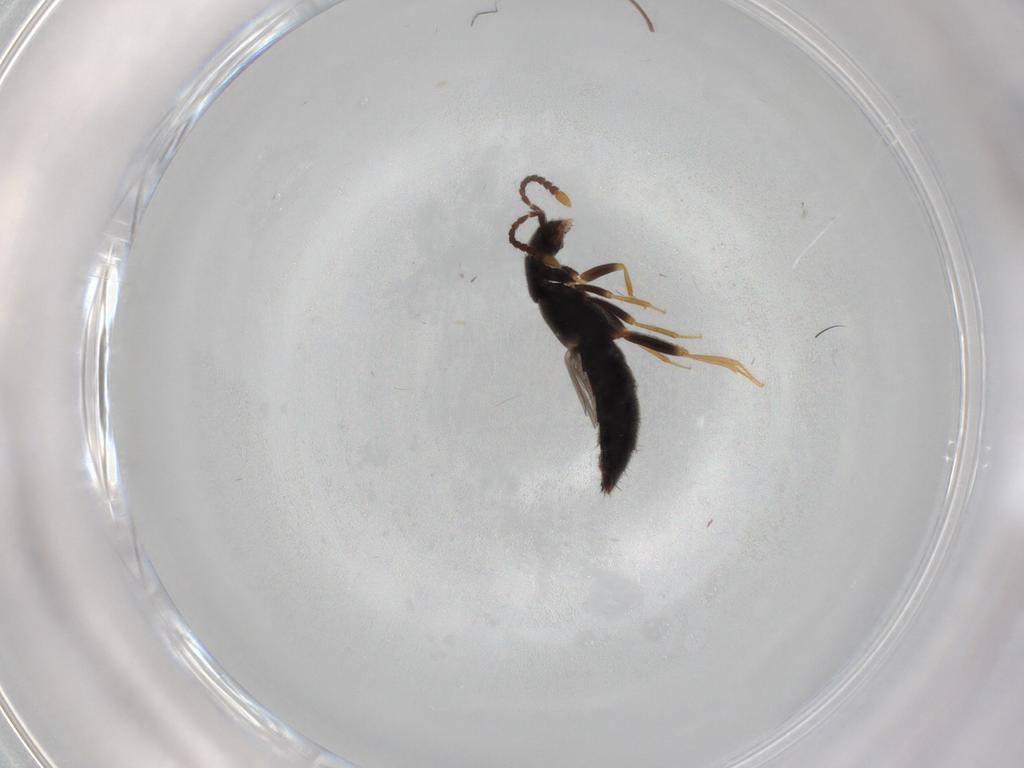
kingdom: Animalia
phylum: Arthropoda
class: Insecta
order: Coleoptera
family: Staphylinidae
